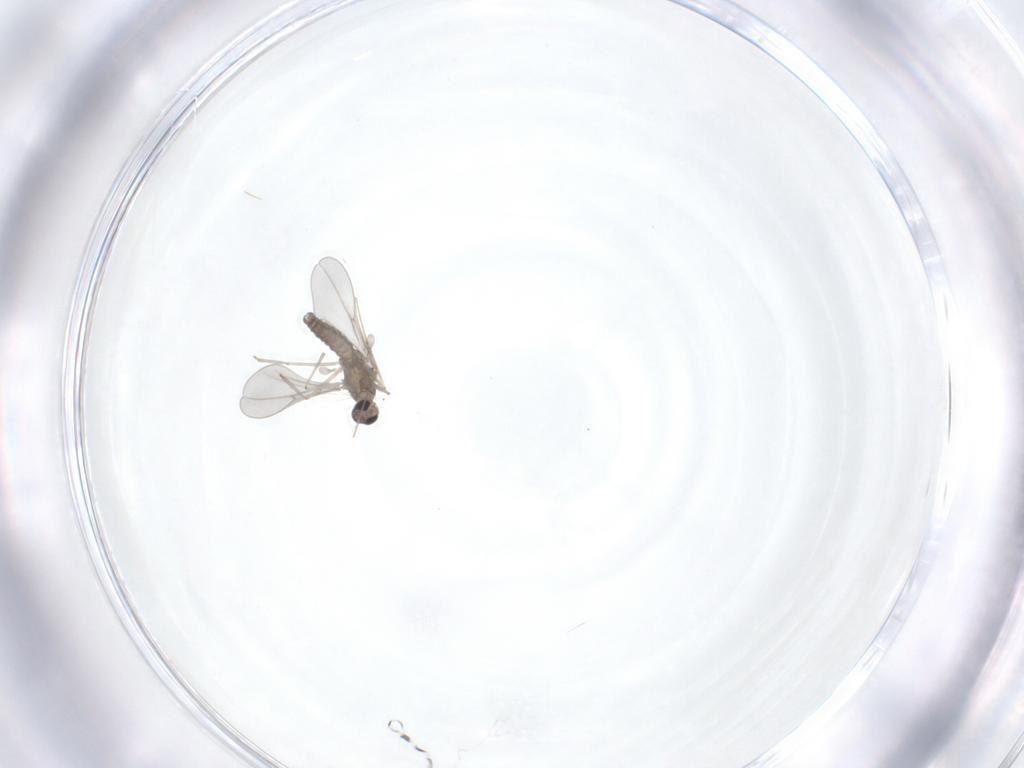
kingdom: Animalia
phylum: Arthropoda
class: Insecta
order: Diptera
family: Cecidomyiidae
